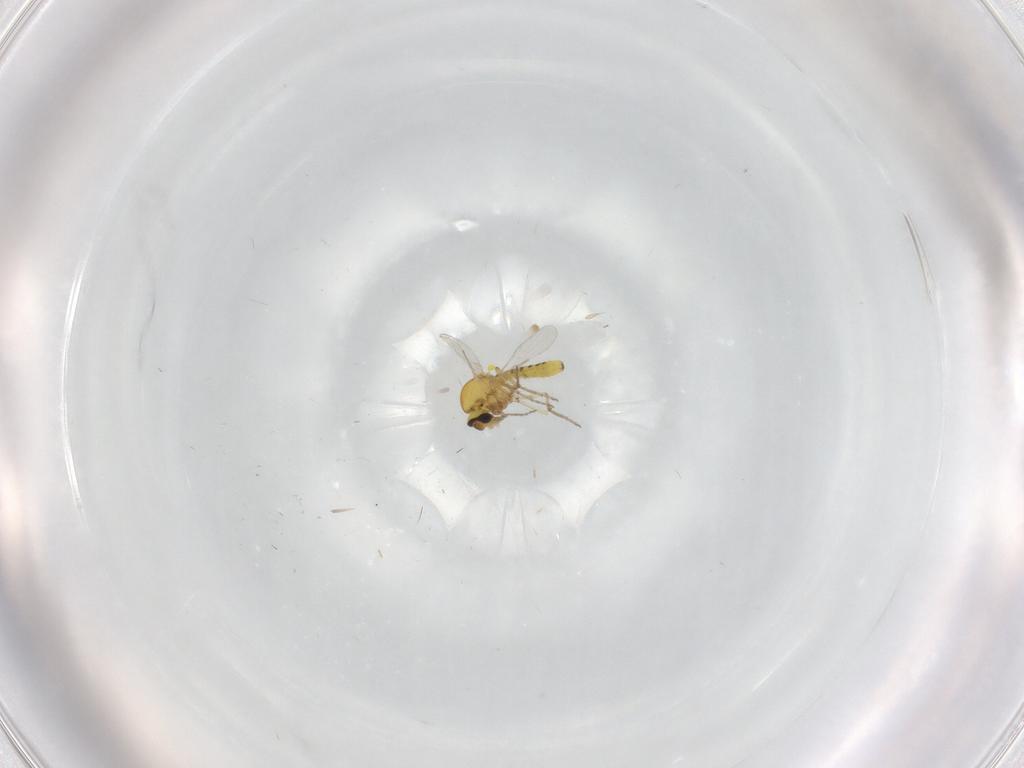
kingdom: Animalia
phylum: Arthropoda
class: Insecta
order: Diptera
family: Ceratopogonidae
